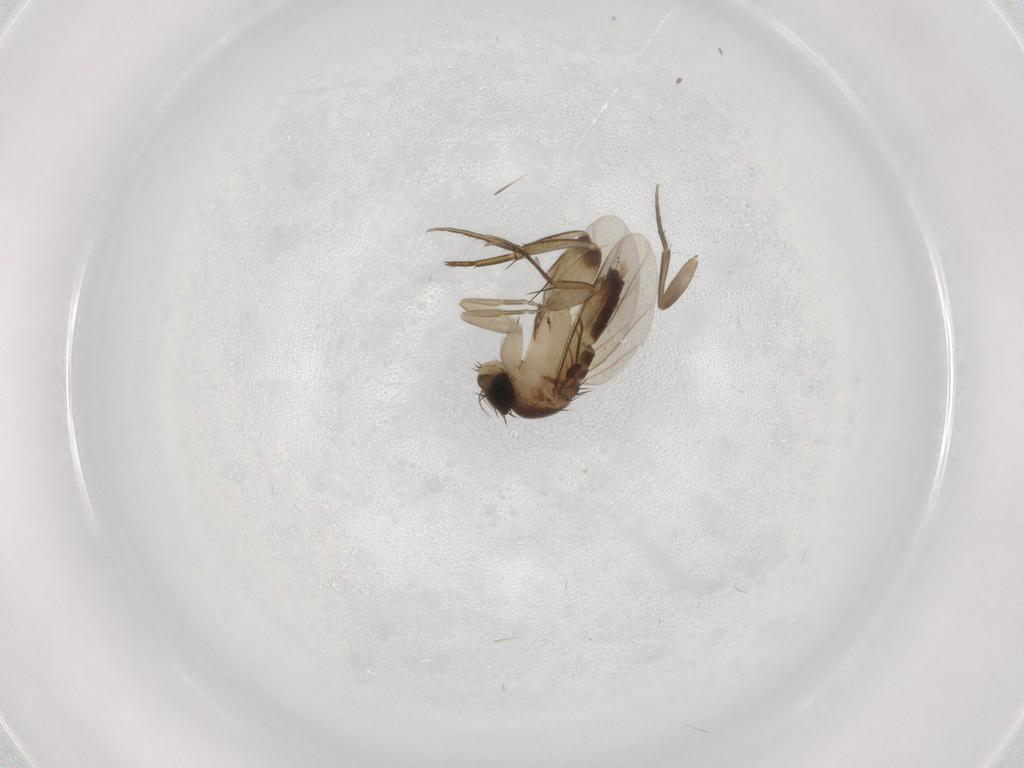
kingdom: Animalia
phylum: Arthropoda
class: Insecta
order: Diptera
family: Phoridae
